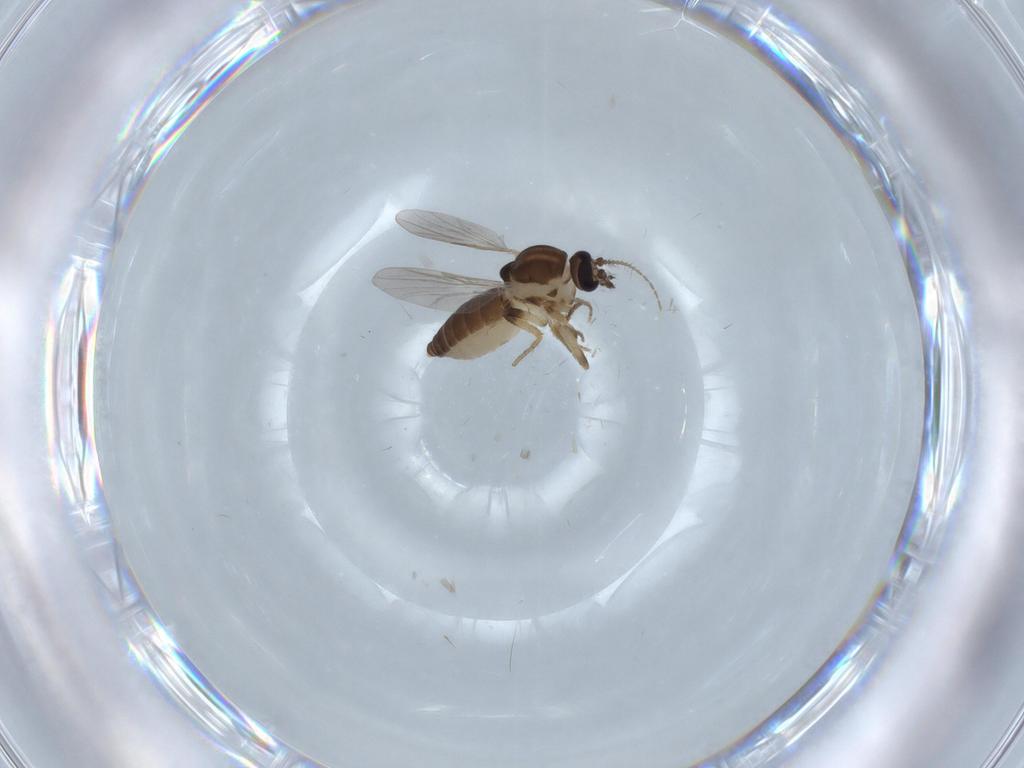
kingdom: Animalia
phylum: Arthropoda
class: Insecta
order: Diptera
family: Ceratopogonidae
